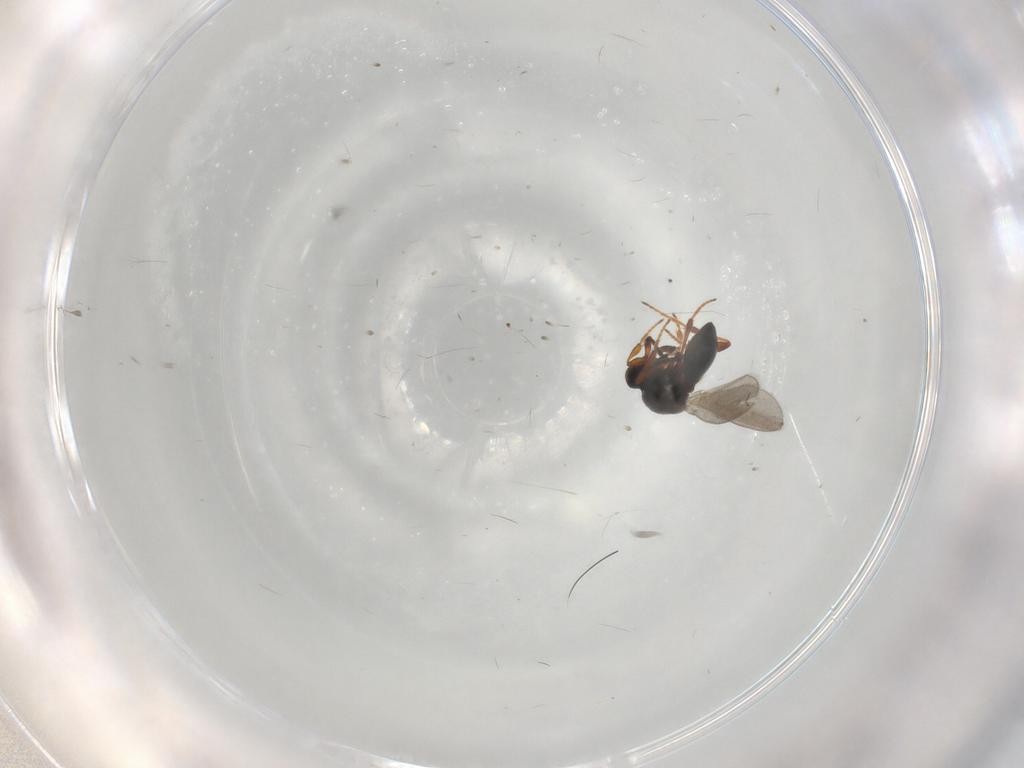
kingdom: Animalia
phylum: Arthropoda
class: Insecta
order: Hymenoptera
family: Platygastridae
